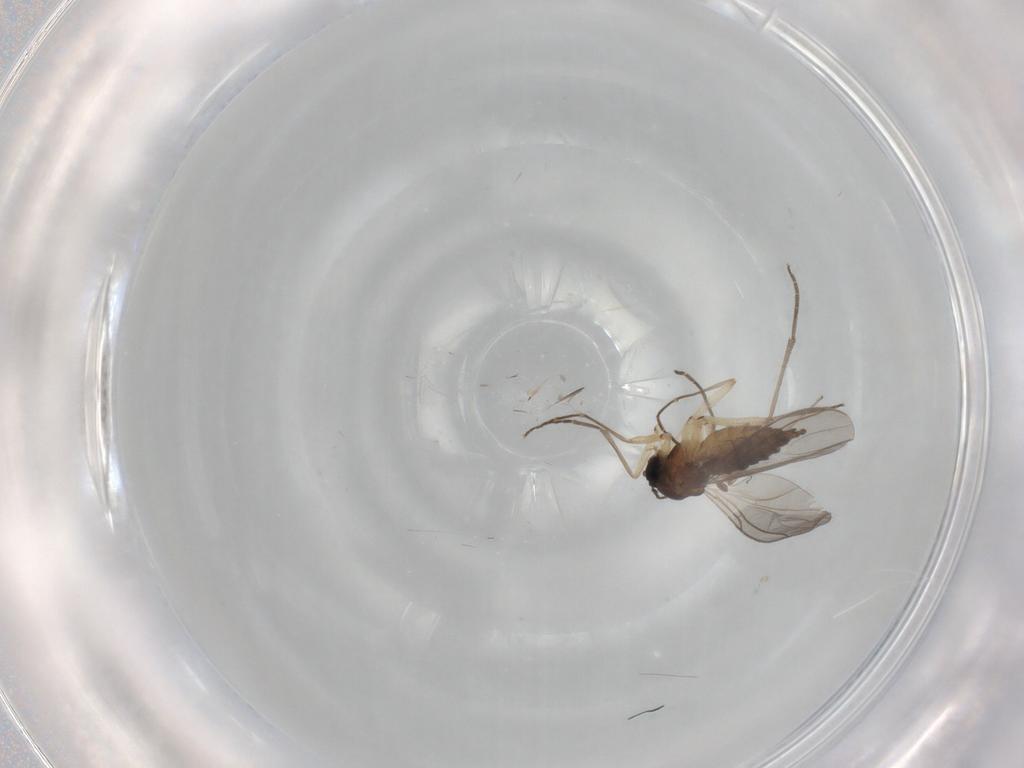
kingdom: Animalia
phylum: Arthropoda
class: Insecta
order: Diptera
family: Sciaridae
